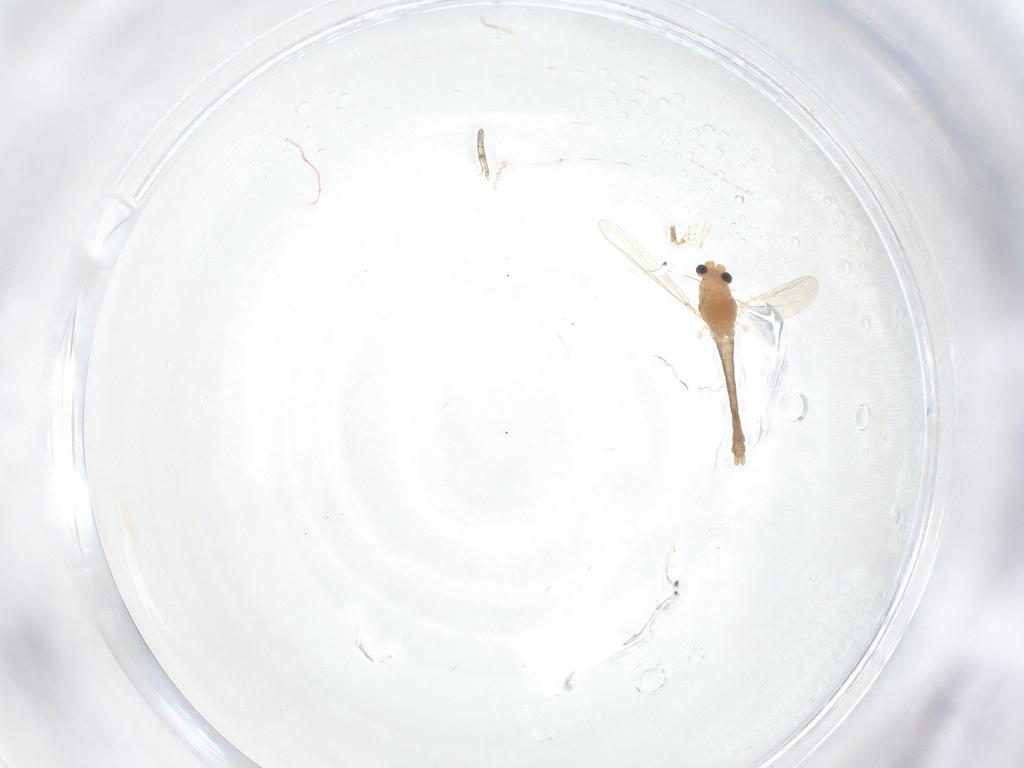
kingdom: Animalia
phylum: Arthropoda
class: Insecta
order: Diptera
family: Chironomidae
